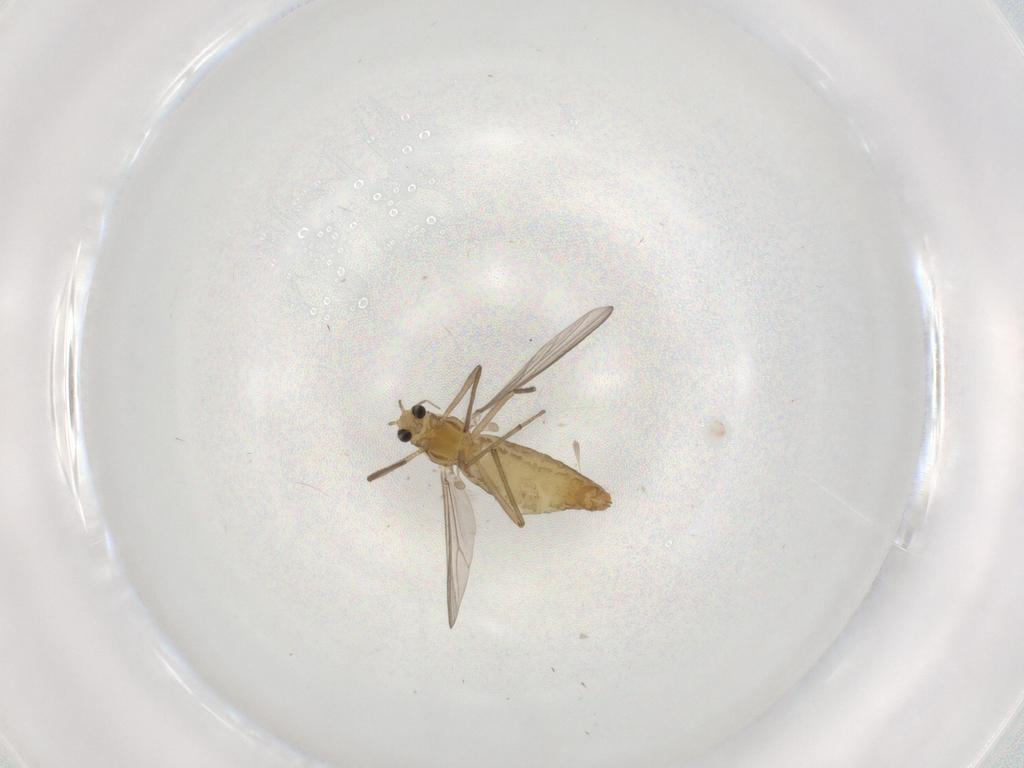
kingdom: Animalia
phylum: Arthropoda
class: Insecta
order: Diptera
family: Chironomidae
